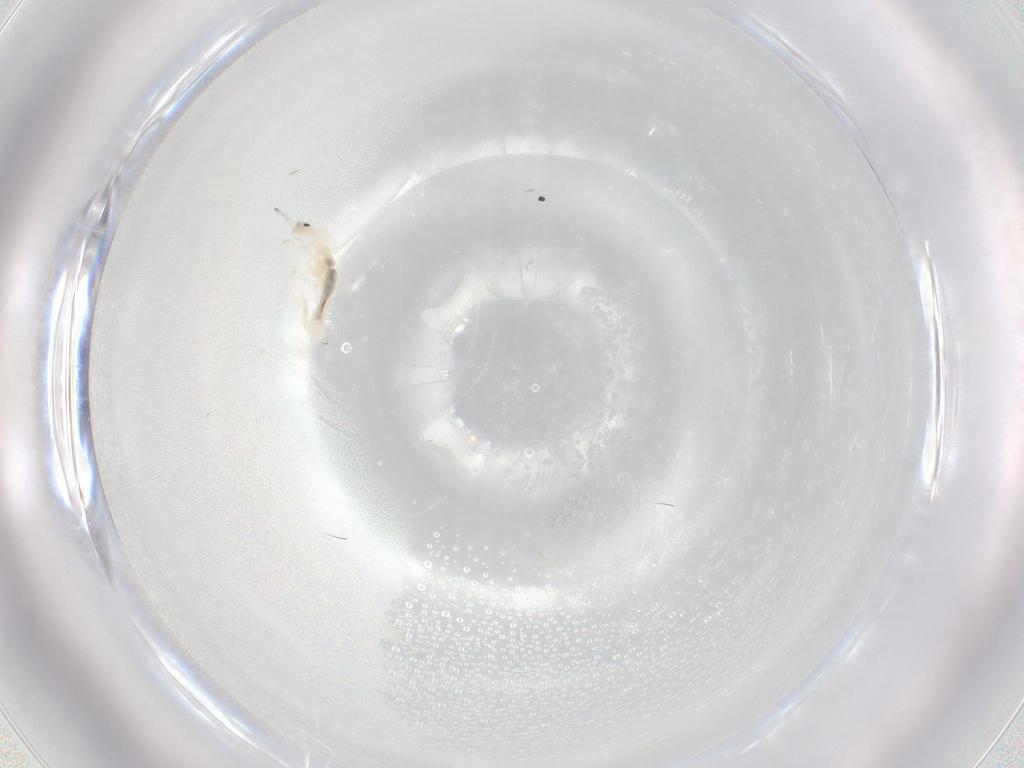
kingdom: Animalia
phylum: Arthropoda
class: Collembola
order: Entomobryomorpha
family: Entomobryidae
